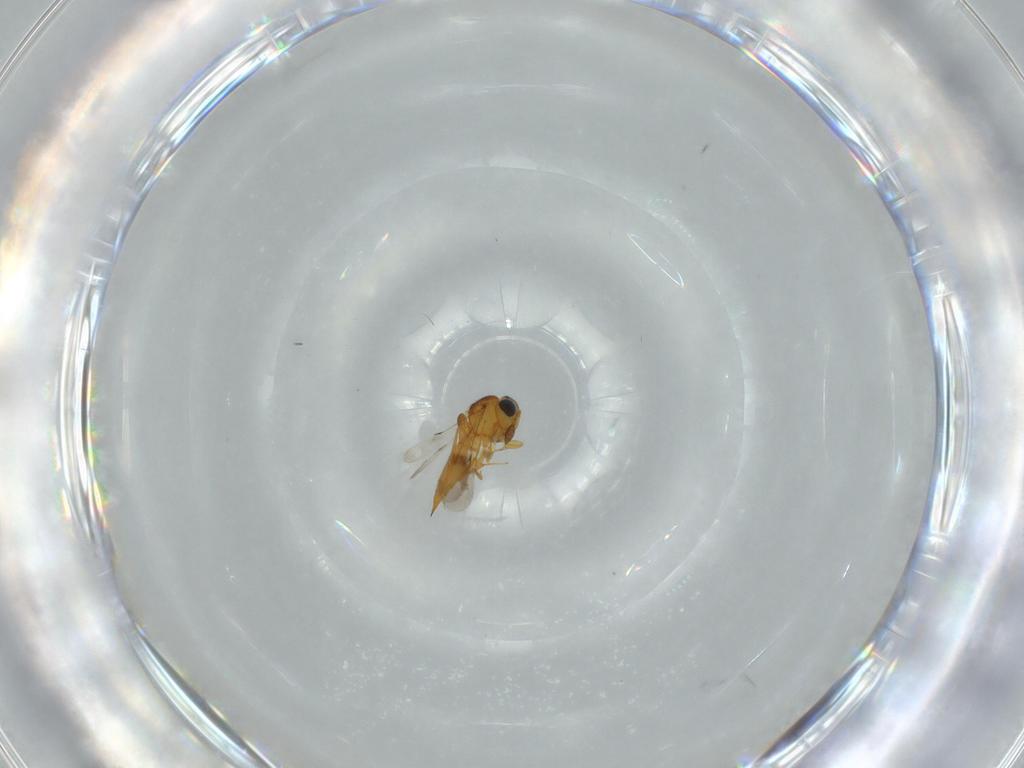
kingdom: Animalia
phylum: Arthropoda
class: Insecta
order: Hymenoptera
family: Scelionidae
